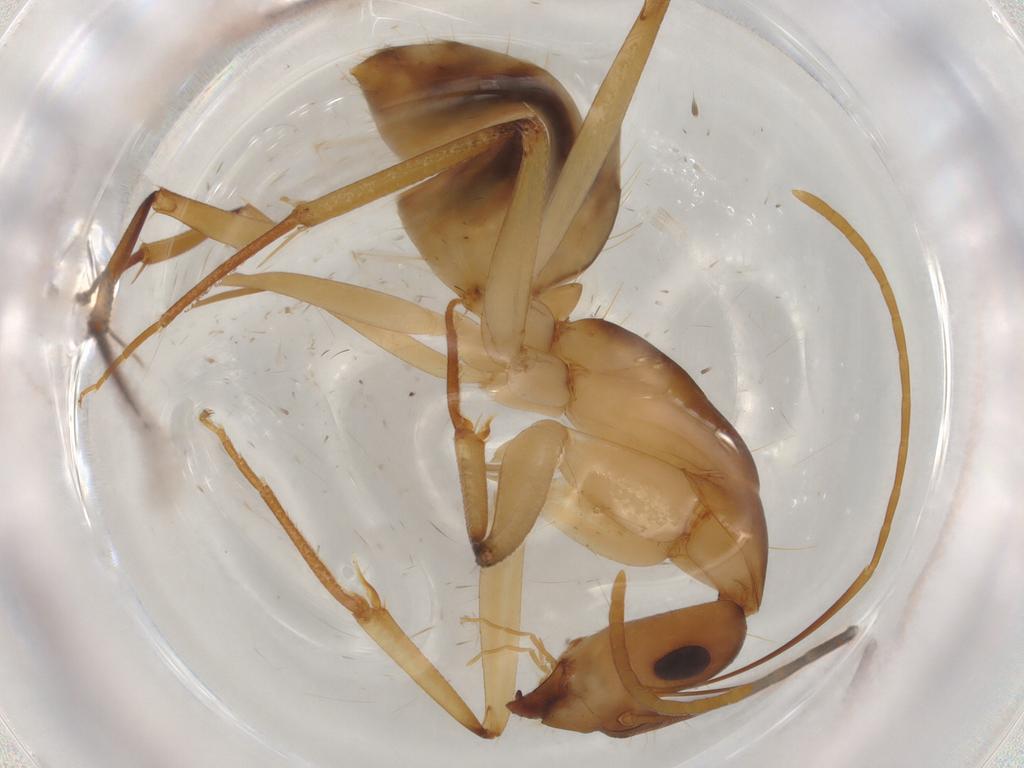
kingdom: Animalia
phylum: Arthropoda
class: Insecta
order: Hymenoptera
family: Formicidae
